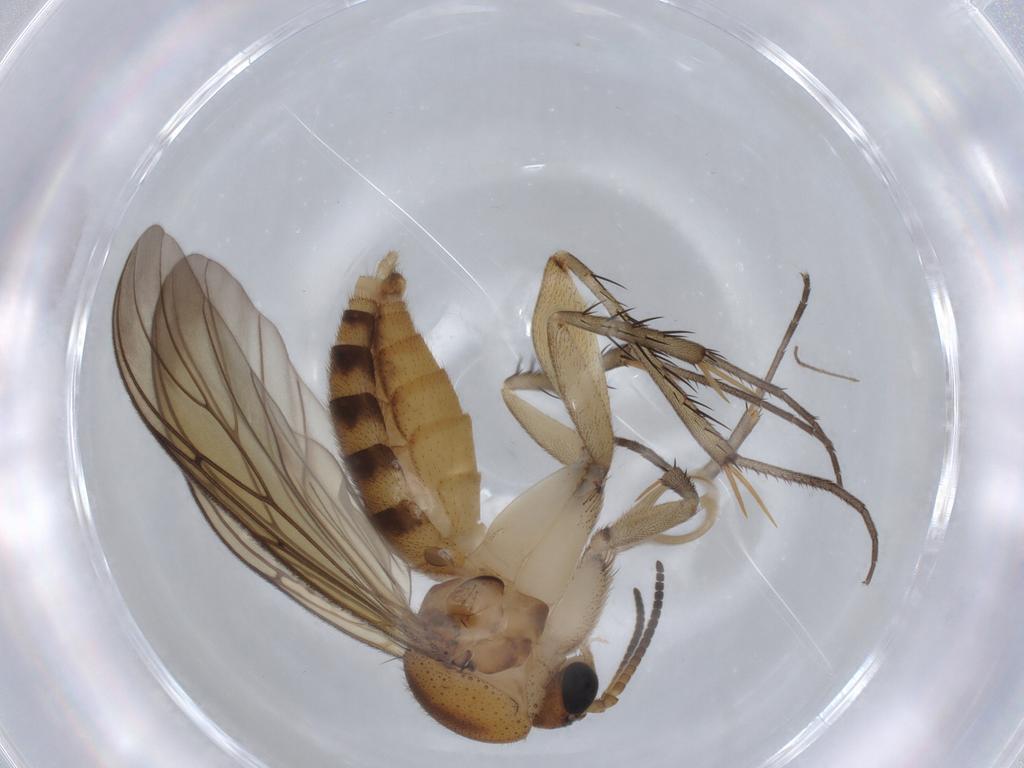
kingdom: Animalia
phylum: Arthropoda
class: Insecta
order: Diptera
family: Mycetophilidae
